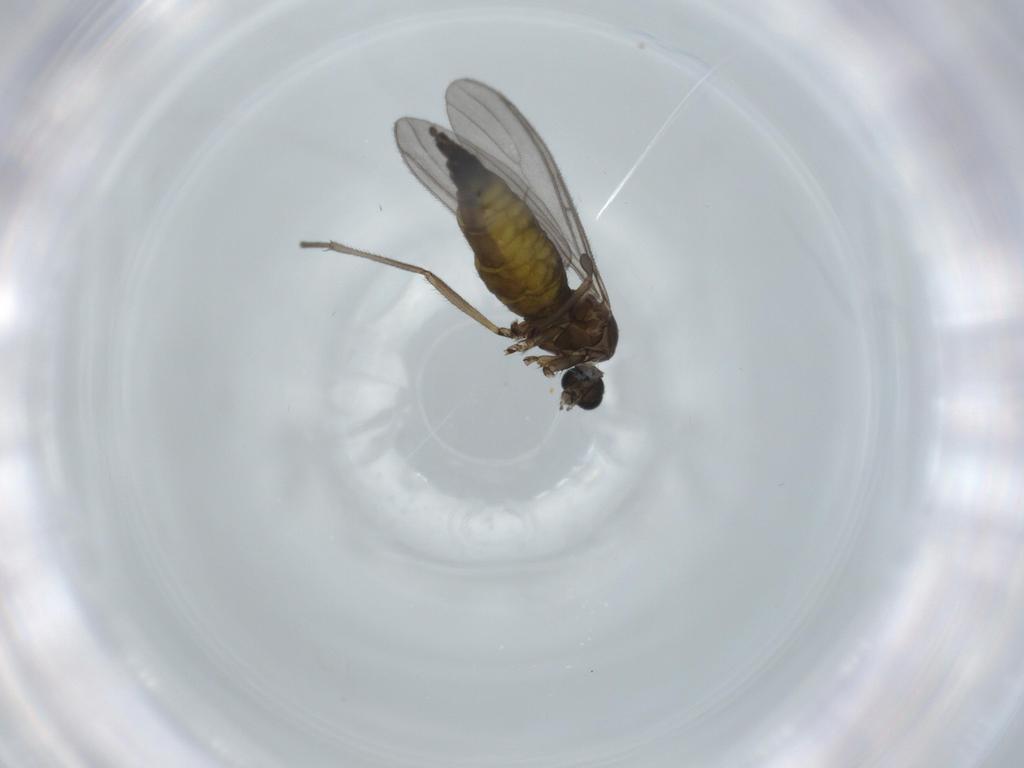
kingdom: Animalia
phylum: Arthropoda
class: Insecta
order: Diptera
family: Sciaridae
